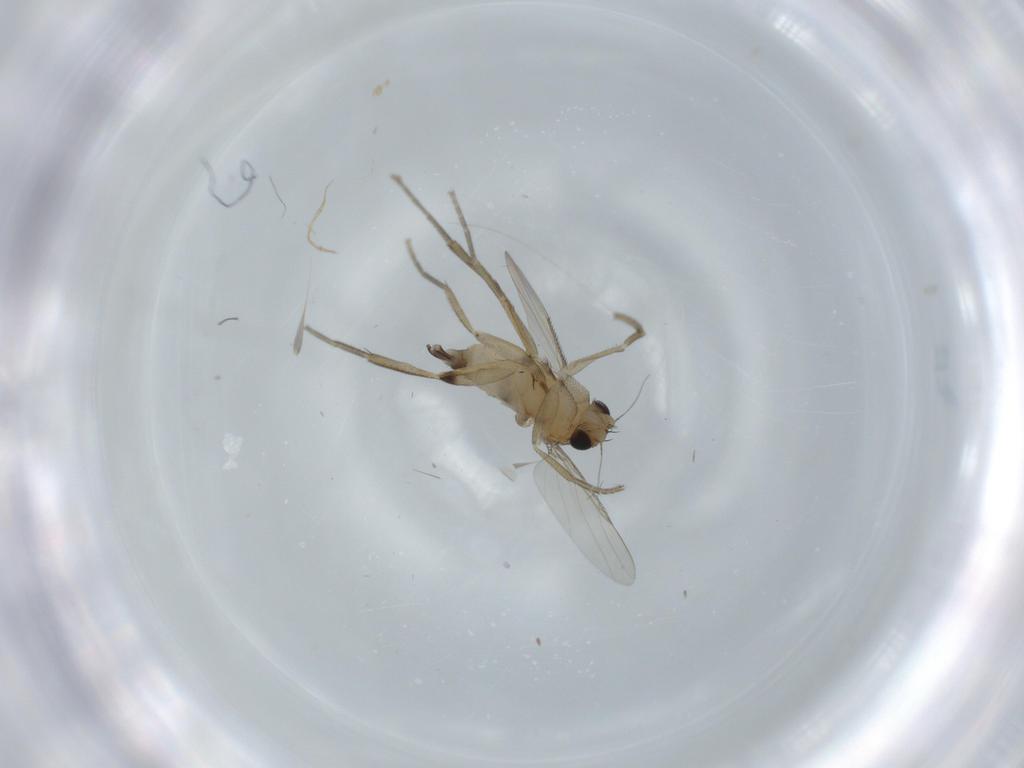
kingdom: Animalia
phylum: Arthropoda
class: Insecta
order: Diptera
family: Phoridae
